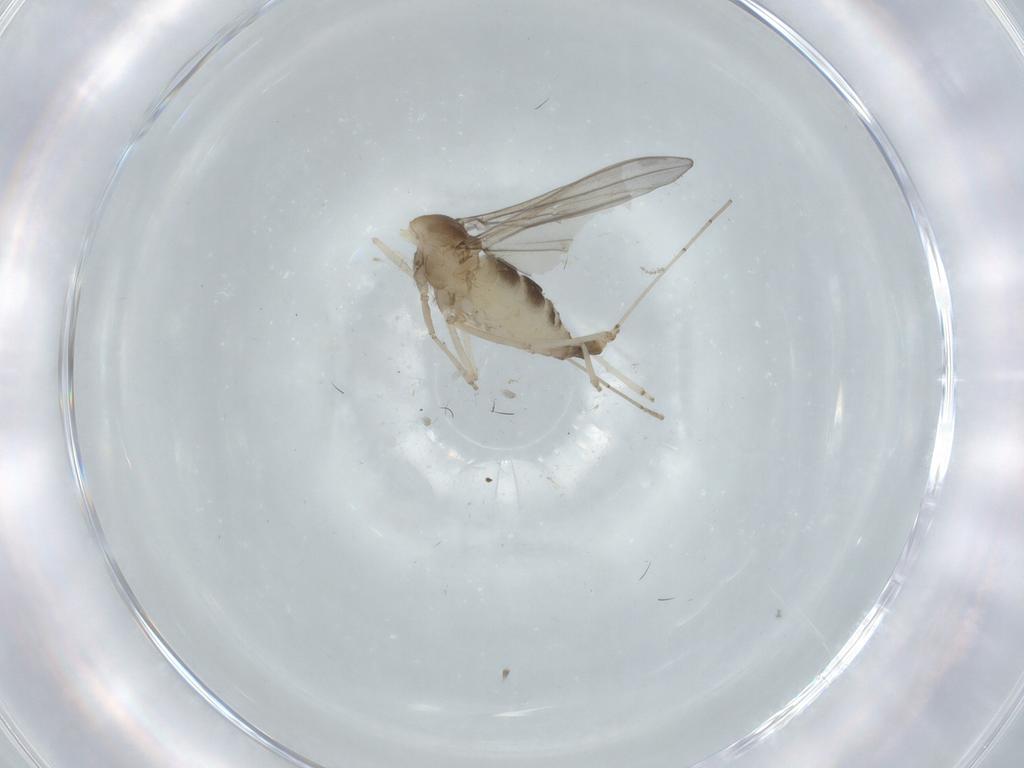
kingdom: Animalia
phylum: Arthropoda
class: Insecta
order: Diptera
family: Cecidomyiidae
